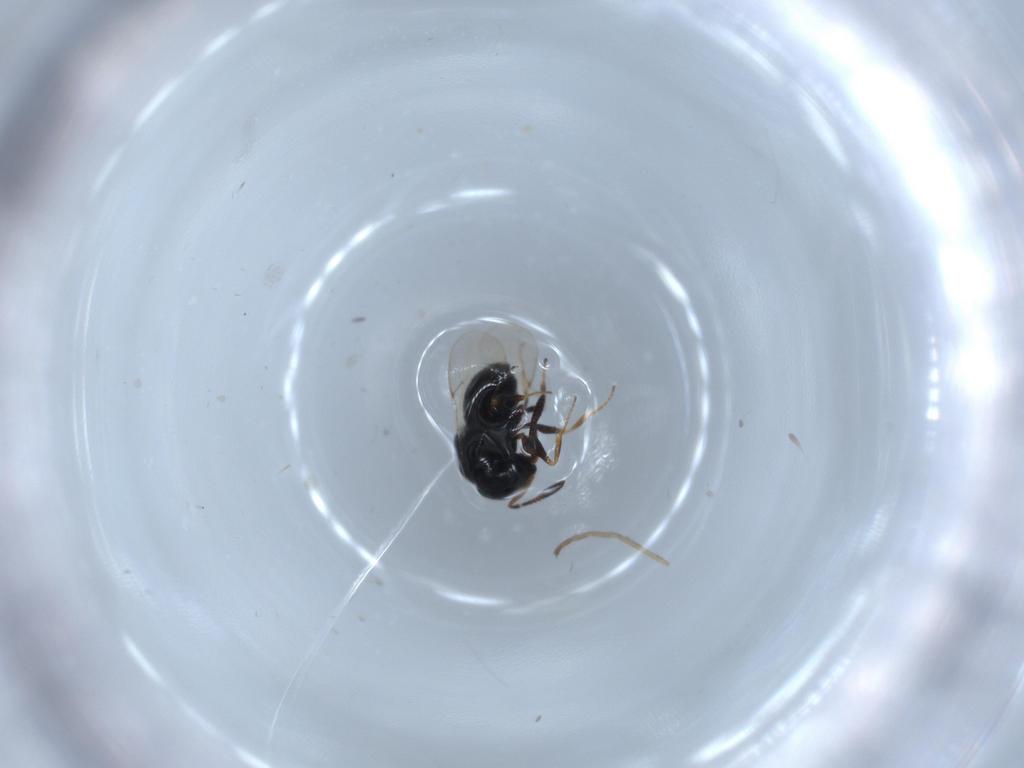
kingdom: Animalia
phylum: Arthropoda
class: Insecta
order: Diptera
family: Cecidomyiidae
